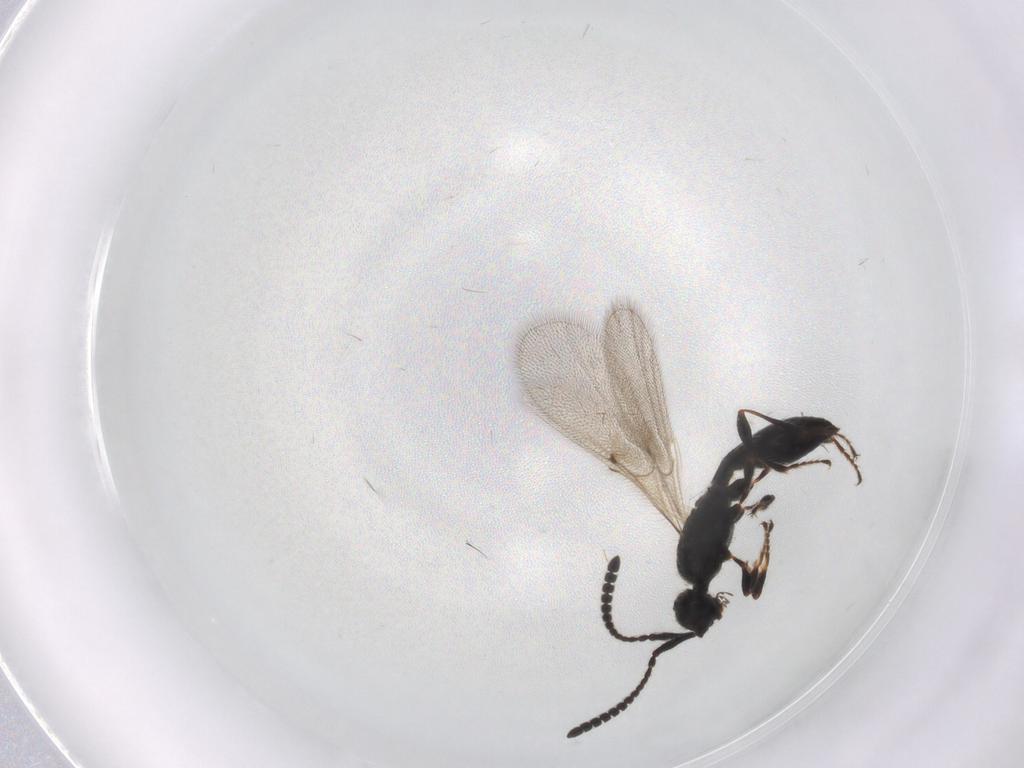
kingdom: Animalia
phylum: Arthropoda
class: Insecta
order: Hymenoptera
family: Diapriidae
